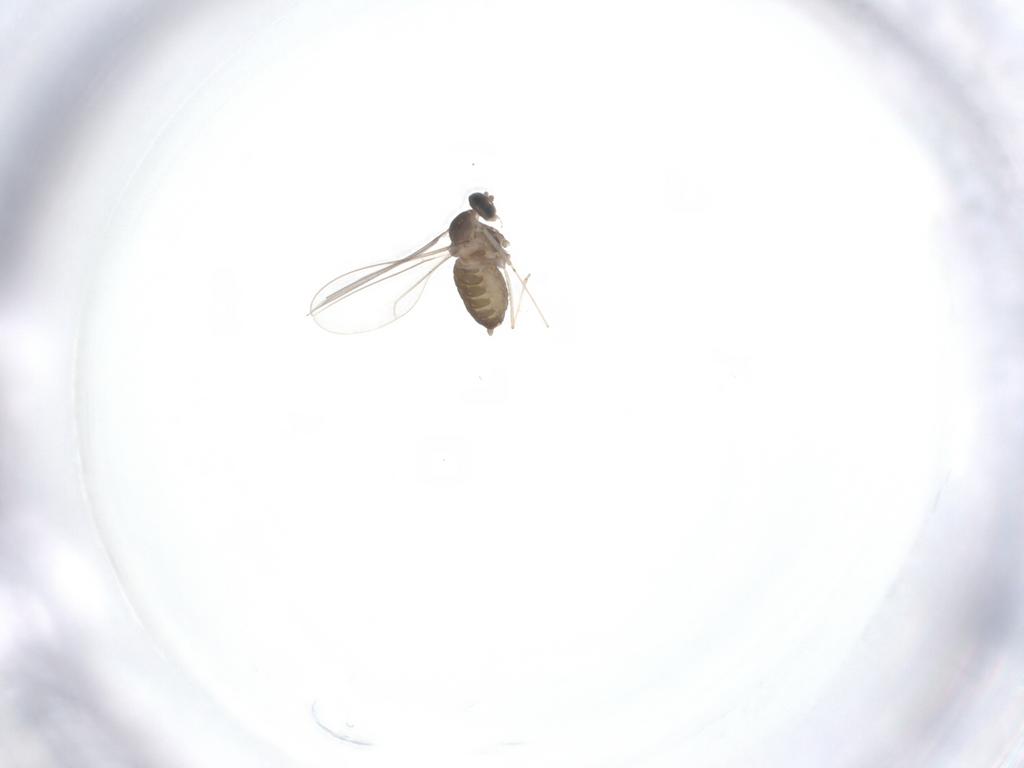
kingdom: Animalia
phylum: Arthropoda
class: Insecta
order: Diptera
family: Cecidomyiidae
